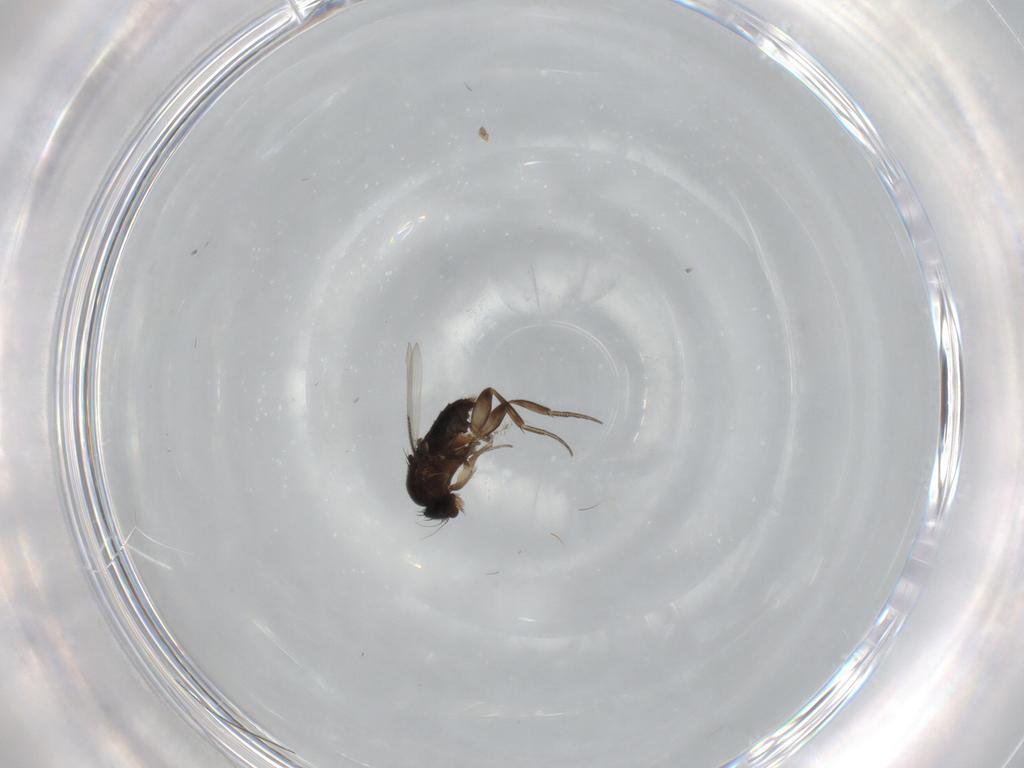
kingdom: Animalia
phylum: Arthropoda
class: Insecta
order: Diptera
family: Phoridae
